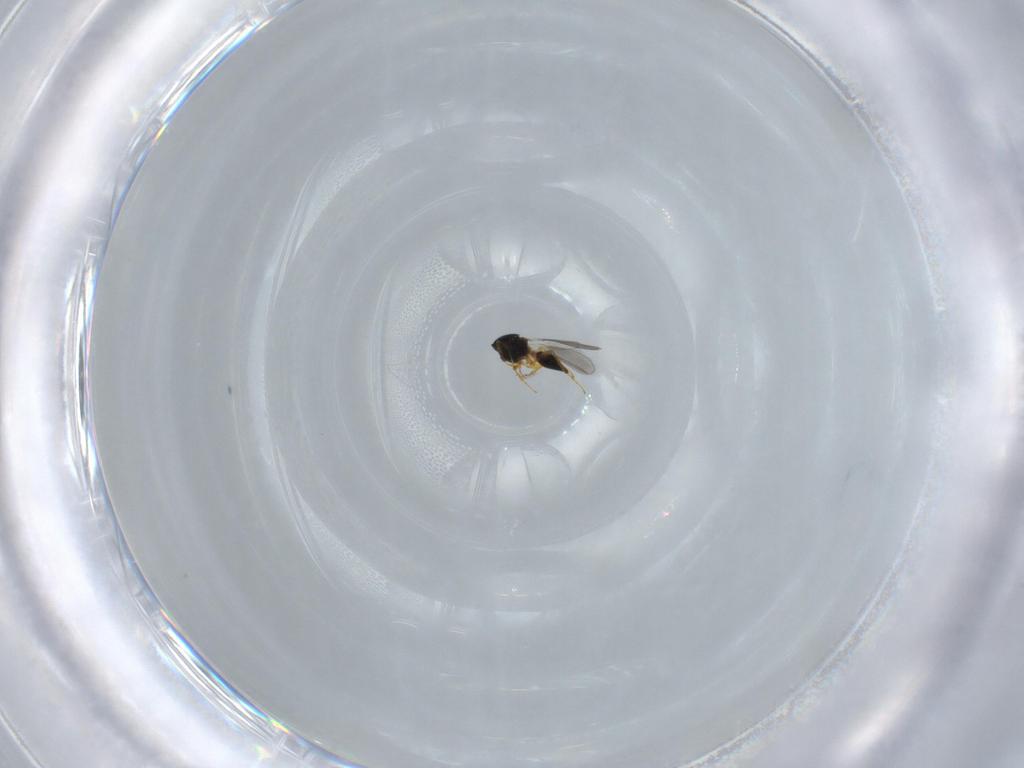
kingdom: Animalia
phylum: Arthropoda
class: Insecta
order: Hymenoptera
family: Platygastridae
